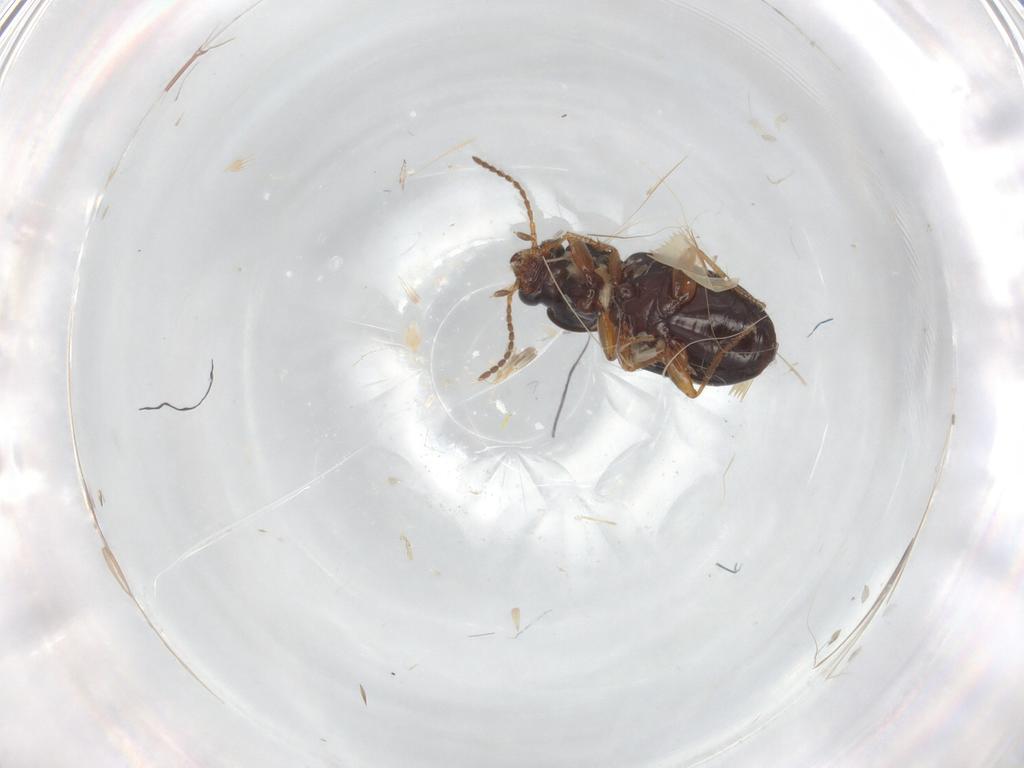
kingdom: Animalia
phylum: Arthropoda
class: Insecta
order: Coleoptera
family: Carabidae
